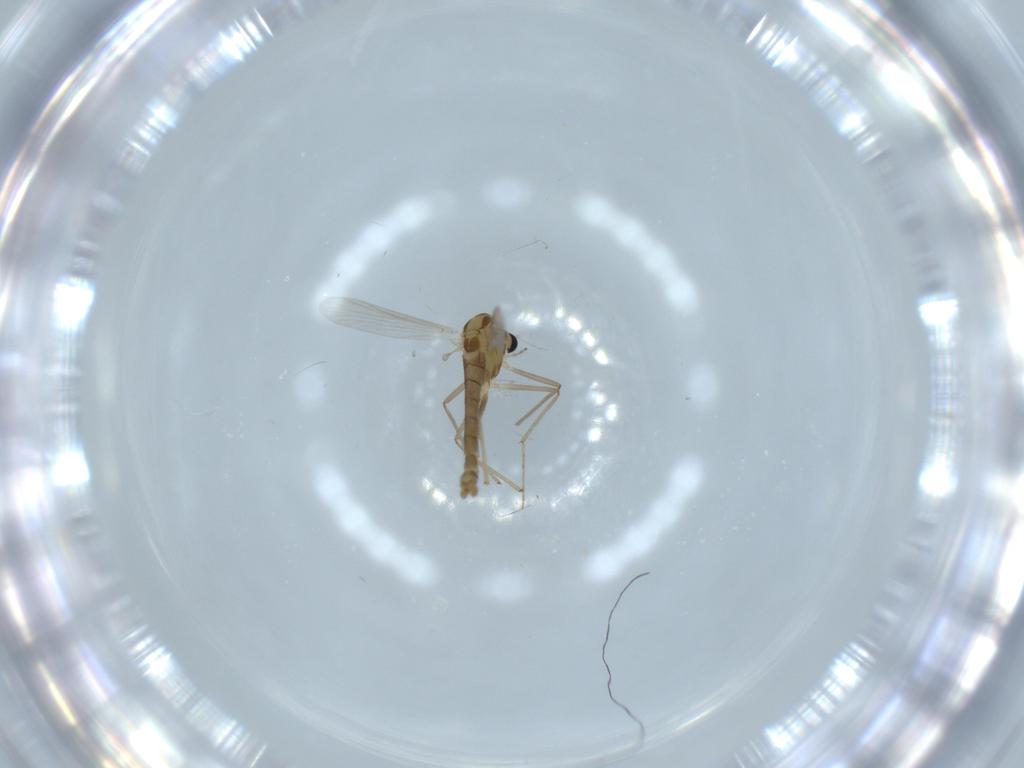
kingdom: Animalia
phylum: Arthropoda
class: Insecta
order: Diptera
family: Chironomidae
